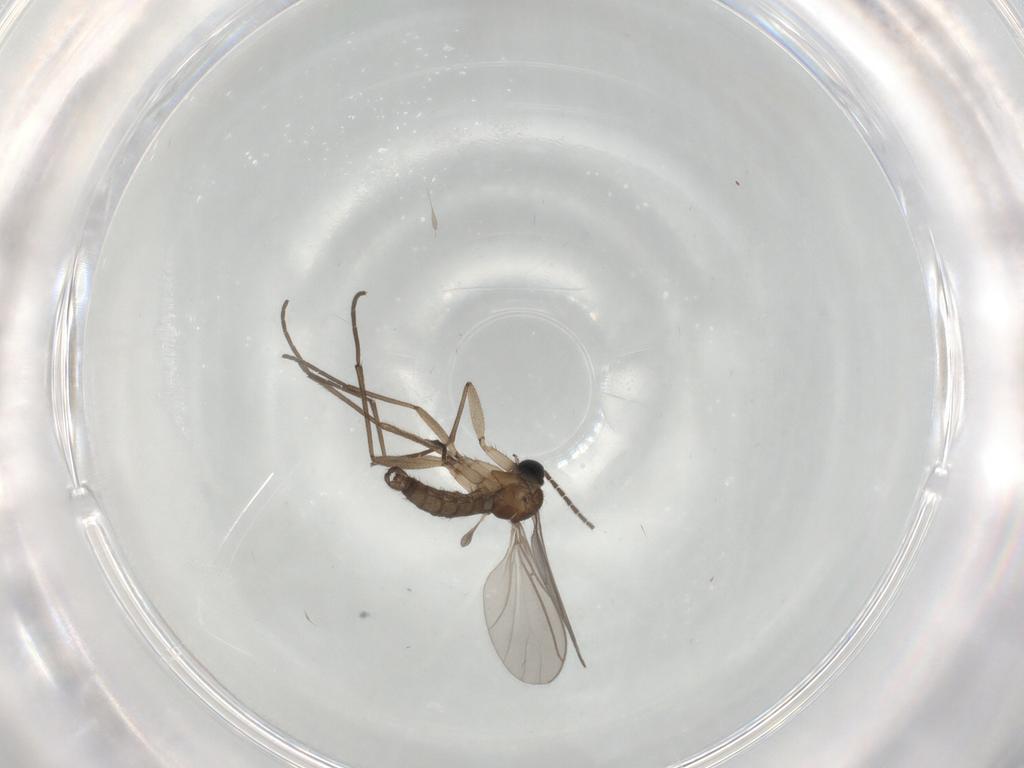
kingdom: Animalia
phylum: Arthropoda
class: Insecta
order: Diptera
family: Sciaridae
